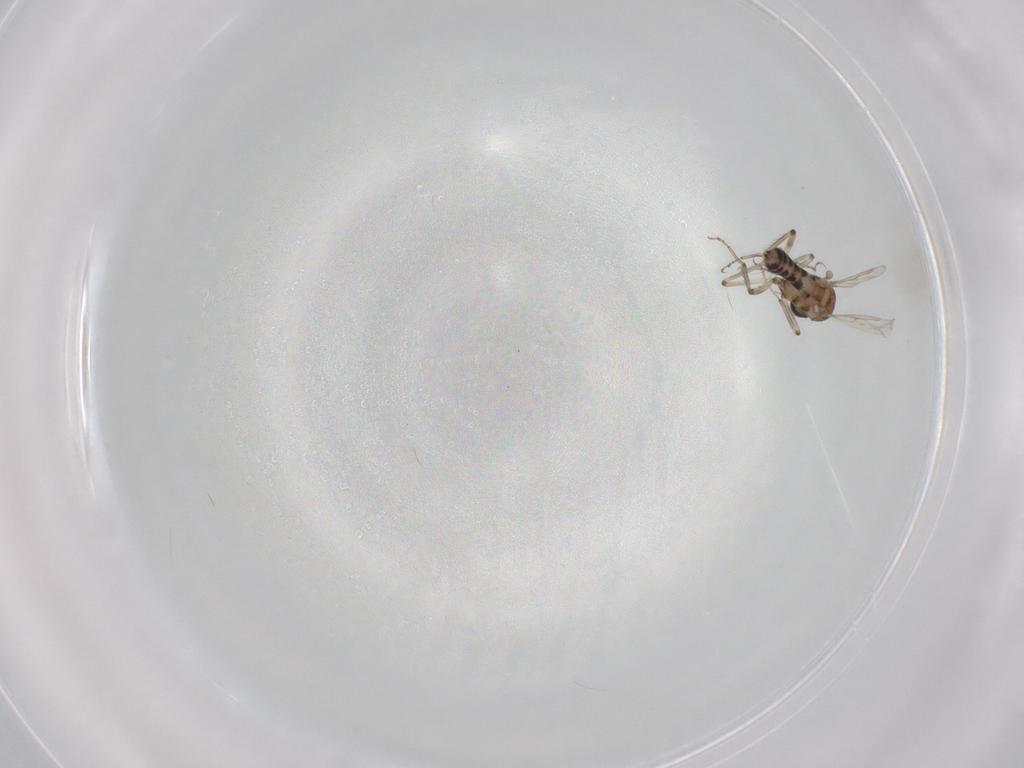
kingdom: Animalia
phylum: Arthropoda
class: Insecta
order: Diptera
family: Ceratopogonidae
